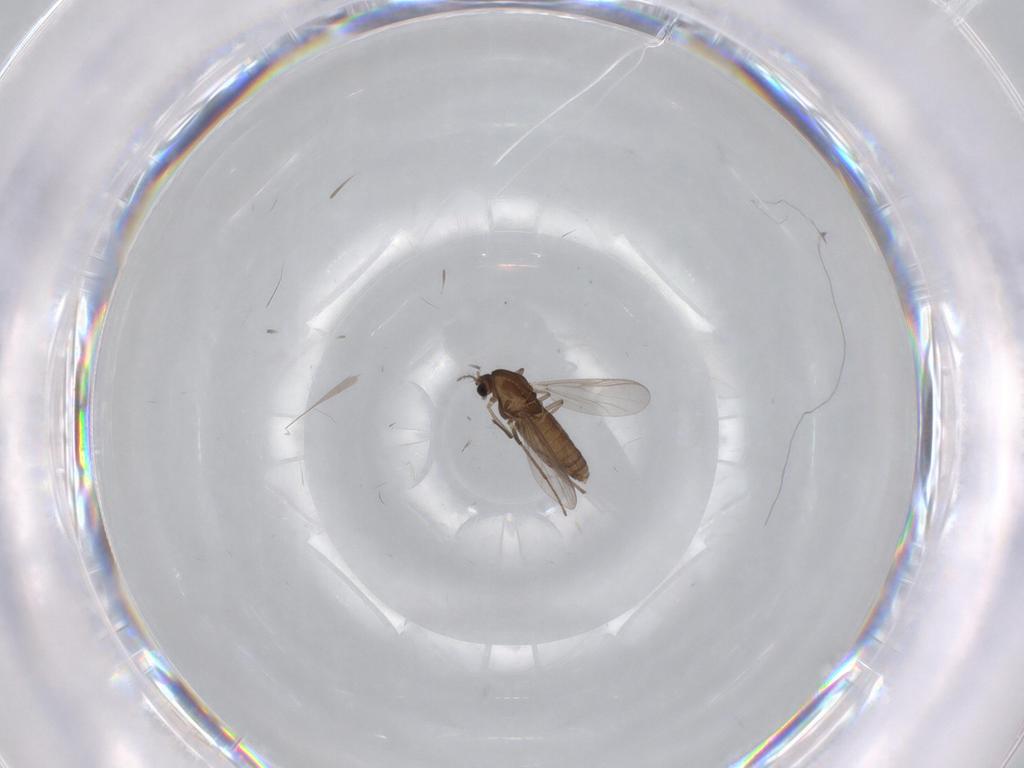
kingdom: Animalia
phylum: Arthropoda
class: Insecta
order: Diptera
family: Chironomidae
